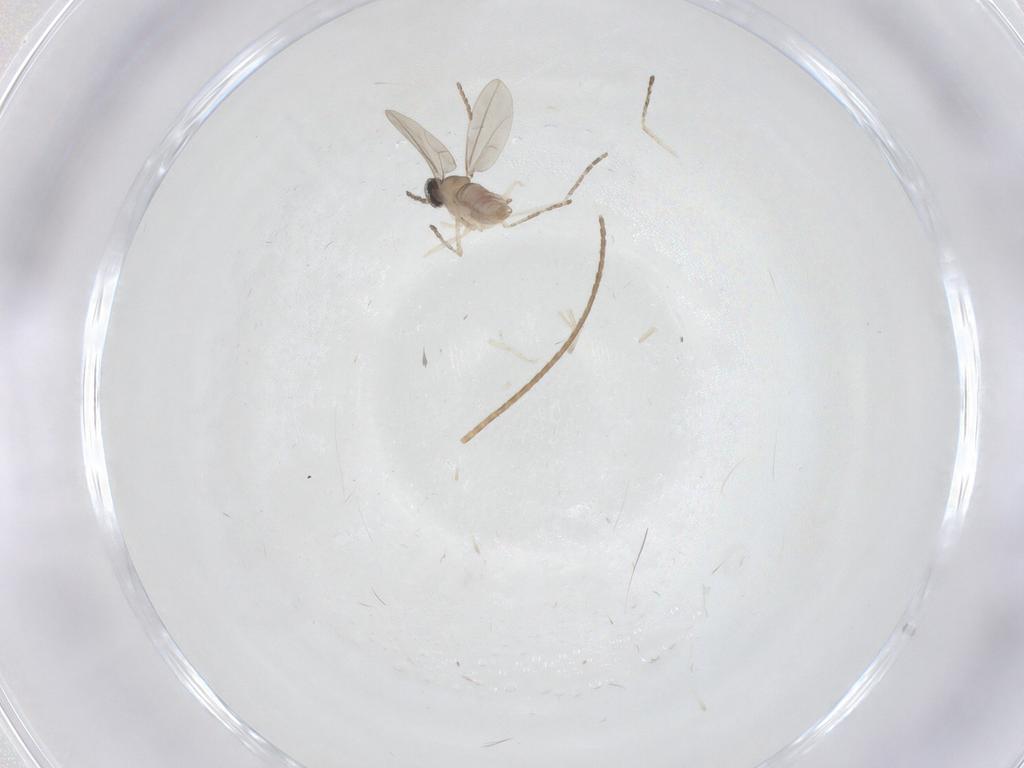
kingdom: Animalia
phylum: Arthropoda
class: Insecta
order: Diptera
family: Cecidomyiidae
